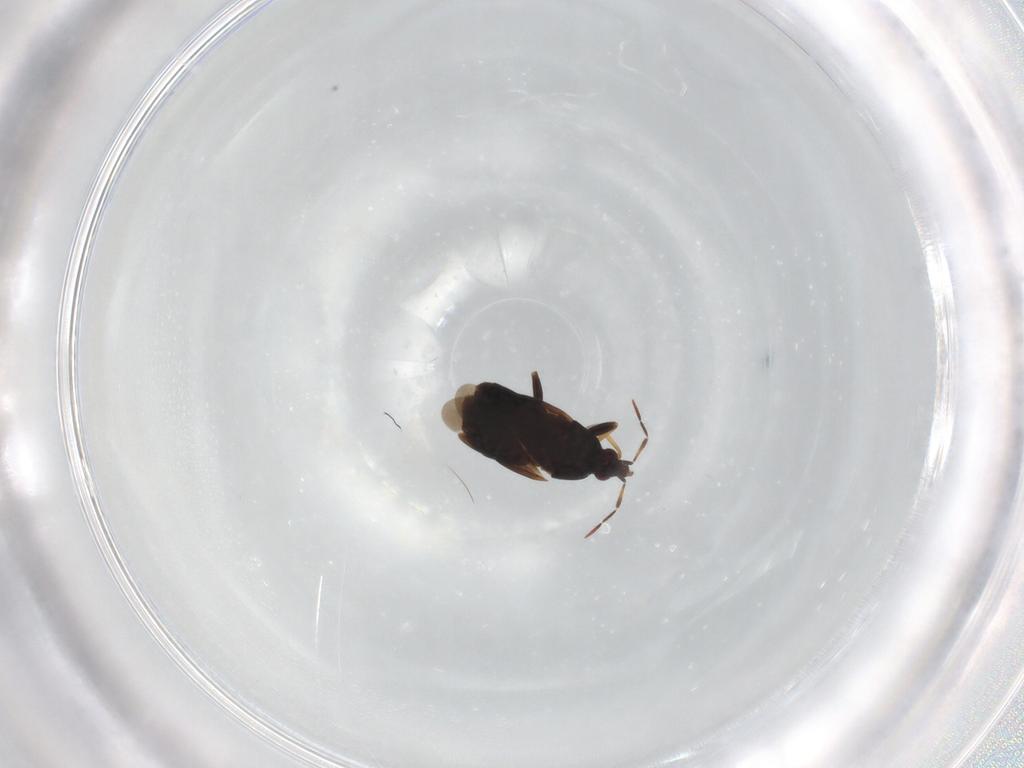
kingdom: Animalia
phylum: Arthropoda
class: Insecta
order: Hemiptera
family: Anthocoridae
